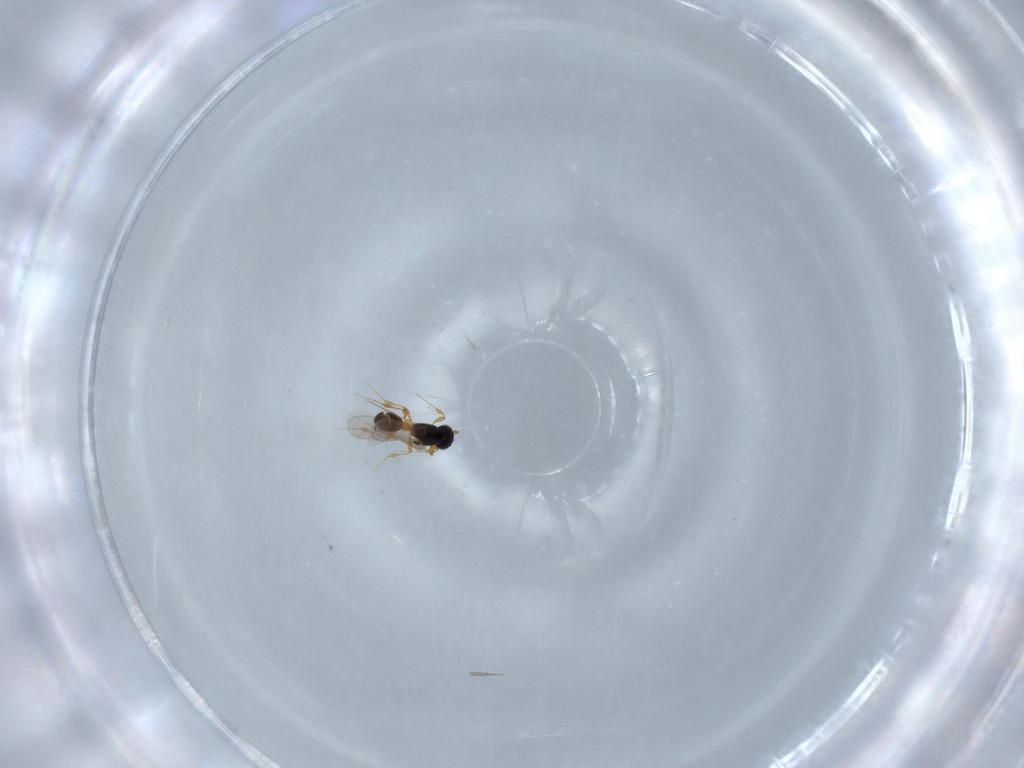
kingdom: Animalia
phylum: Arthropoda
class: Insecta
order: Hymenoptera
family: Platygastridae
